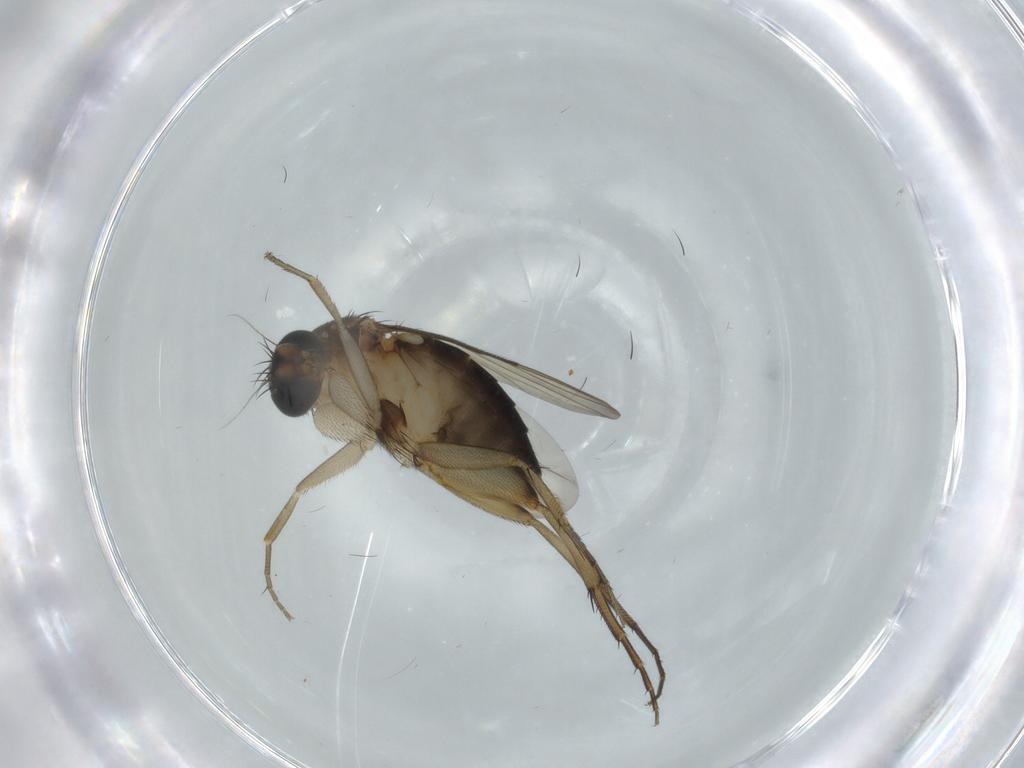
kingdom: Animalia
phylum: Arthropoda
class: Insecta
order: Diptera
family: Phoridae
